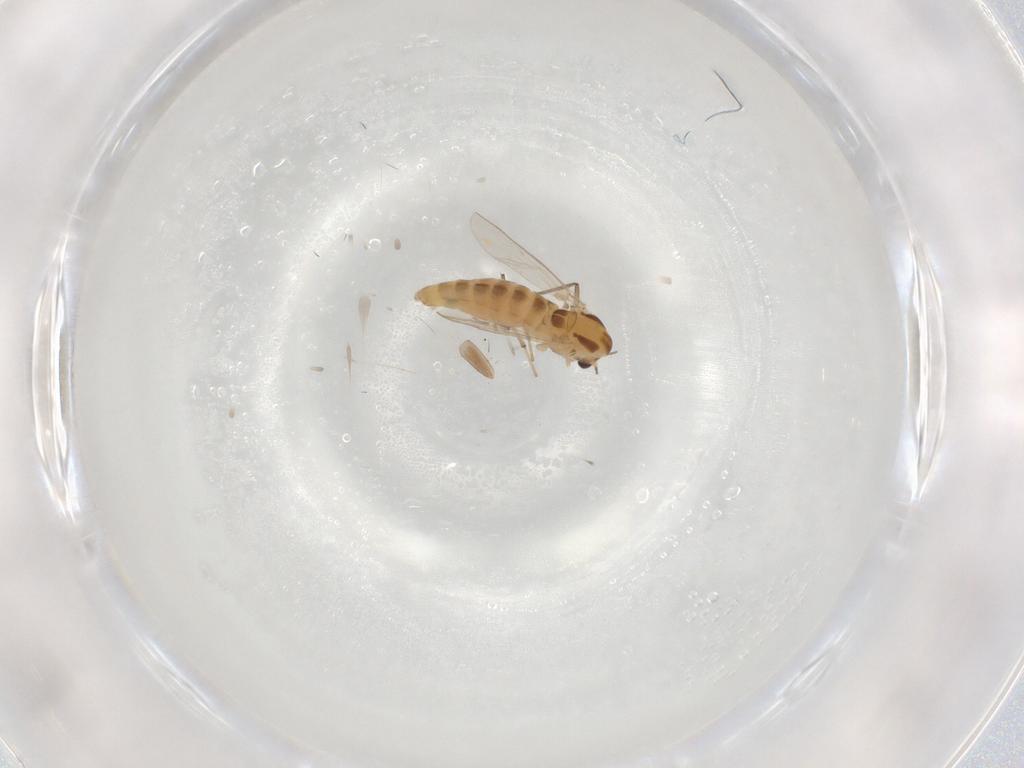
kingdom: Animalia
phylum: Arthropoda
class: Insecta
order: Diptera
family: Chironomidae
